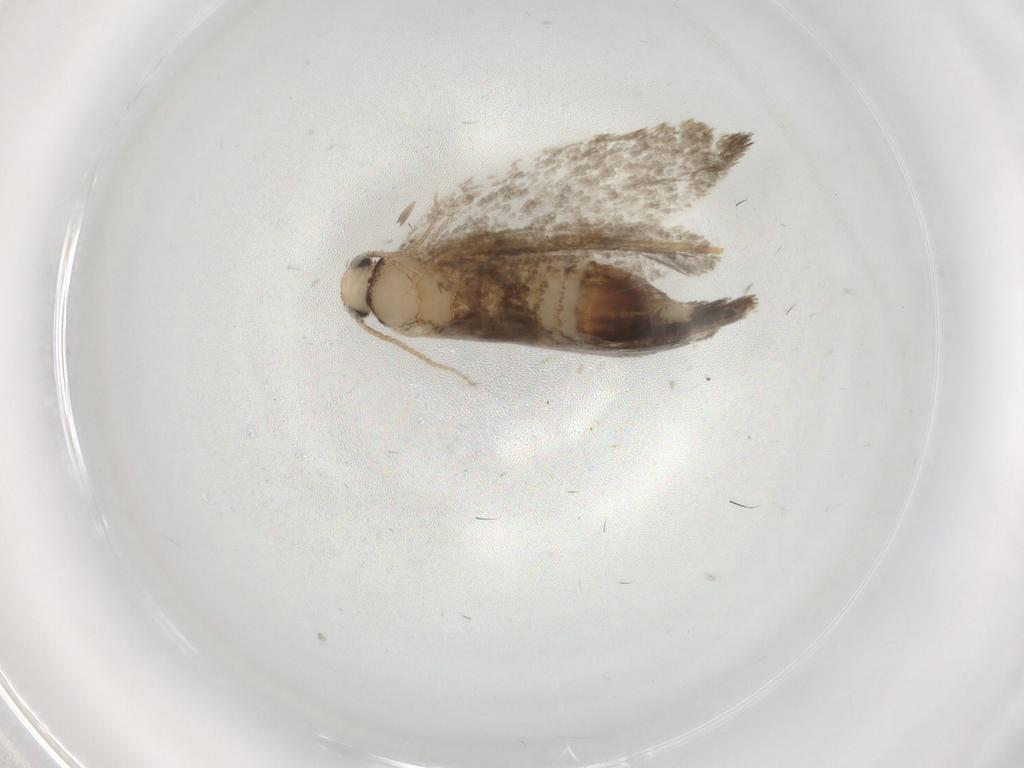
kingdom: Animalia
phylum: Arthropoda
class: Insecta
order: Lepidoptera
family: Psychidae
